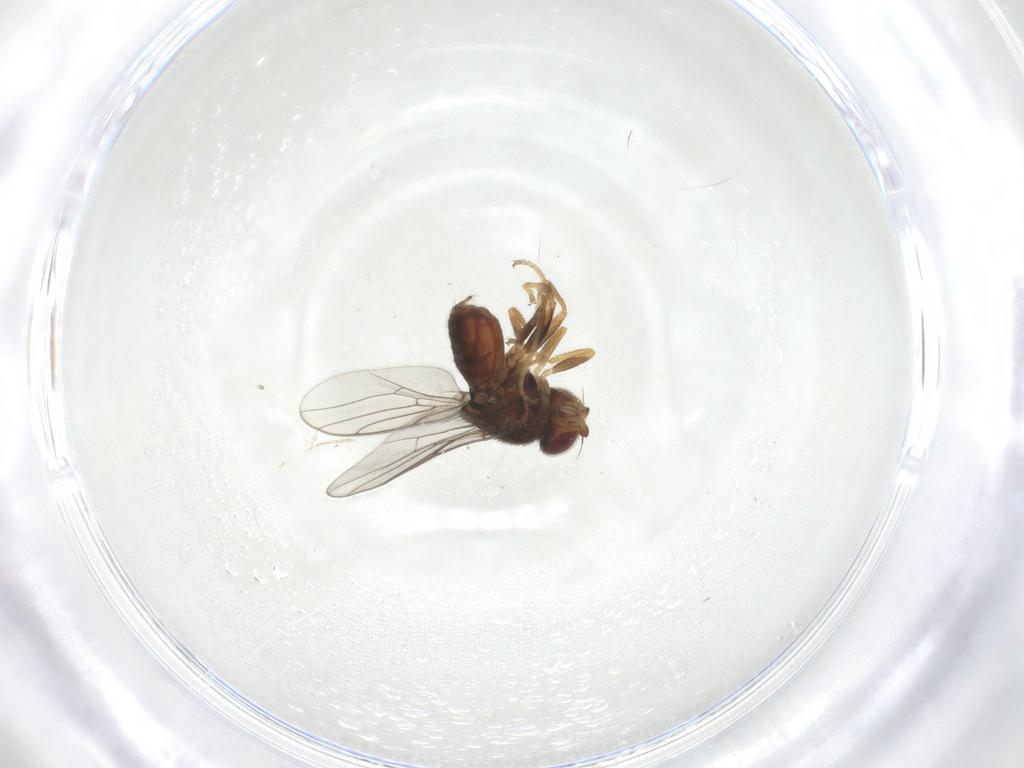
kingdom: Animalia
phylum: Arthropoda
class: Insecta
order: Diptera
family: Chloropidae
